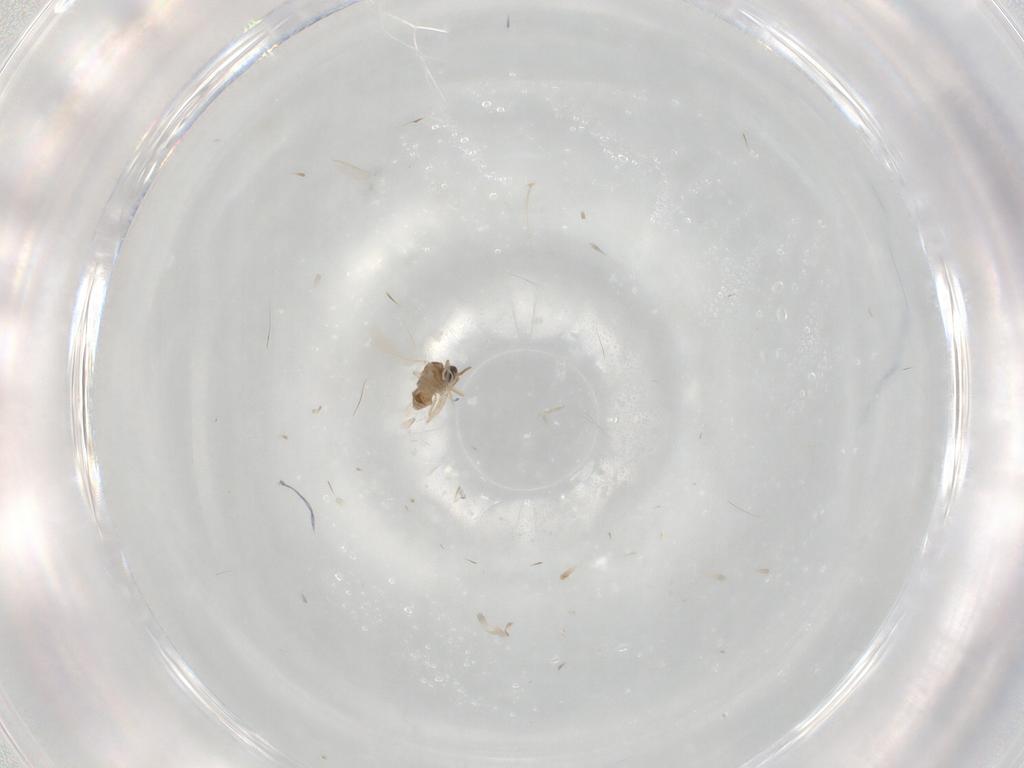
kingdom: Animalia
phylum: Arthropoda
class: Insecta
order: Diptera
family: Cecidomyiidae
